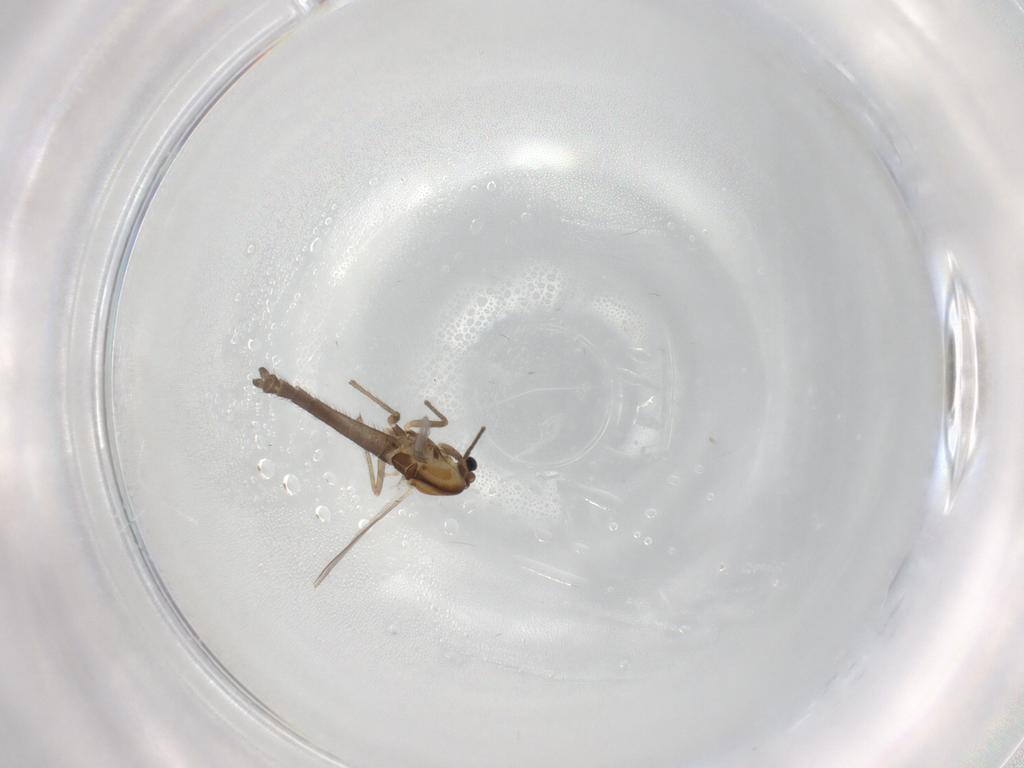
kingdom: Animalia
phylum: Arthropoda
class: Insecta
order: Diptera
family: Chironomidae
